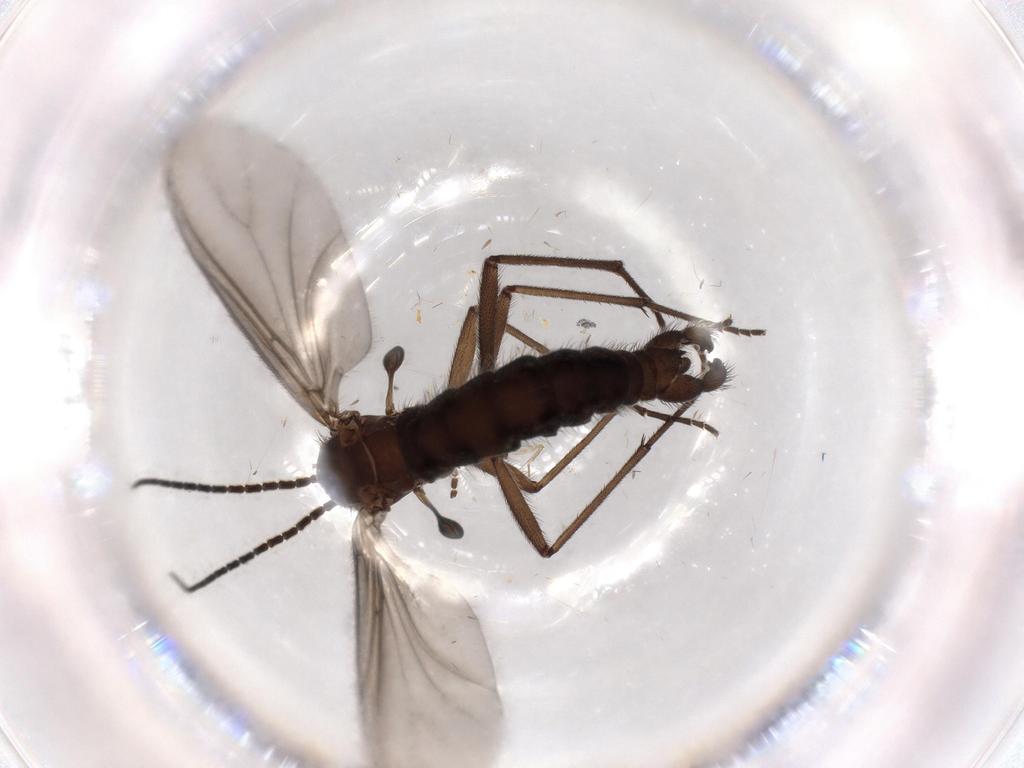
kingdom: Animalia
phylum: Arthropoda
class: Insecta
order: Diptera
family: Sciaridae
